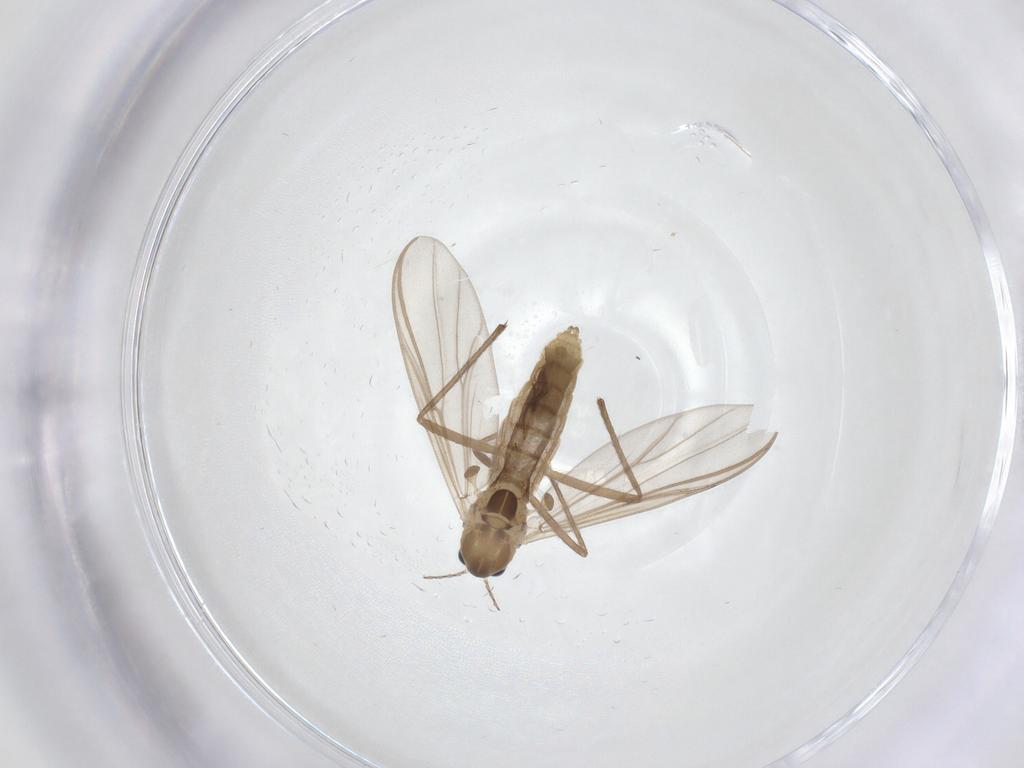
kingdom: Animalia
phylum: Arthropoda
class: Insecta
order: Diptera
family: Chironomidae
